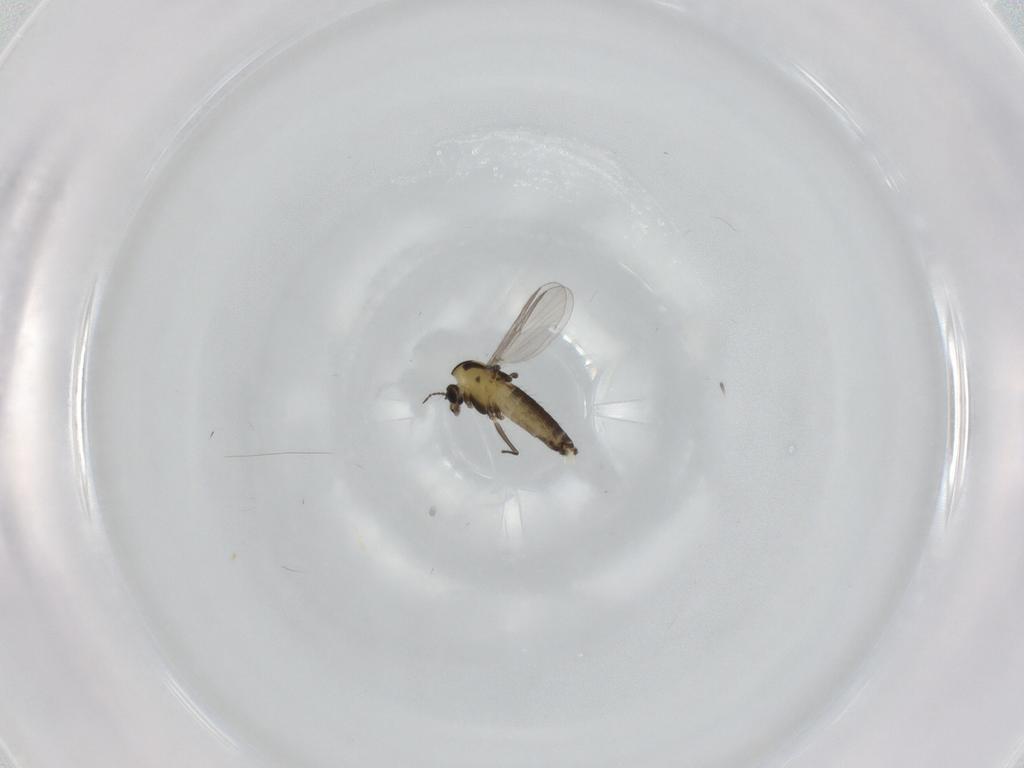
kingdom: Animalia
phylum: Arthropoda
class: Insecta
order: Diptera
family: Chironomidae
